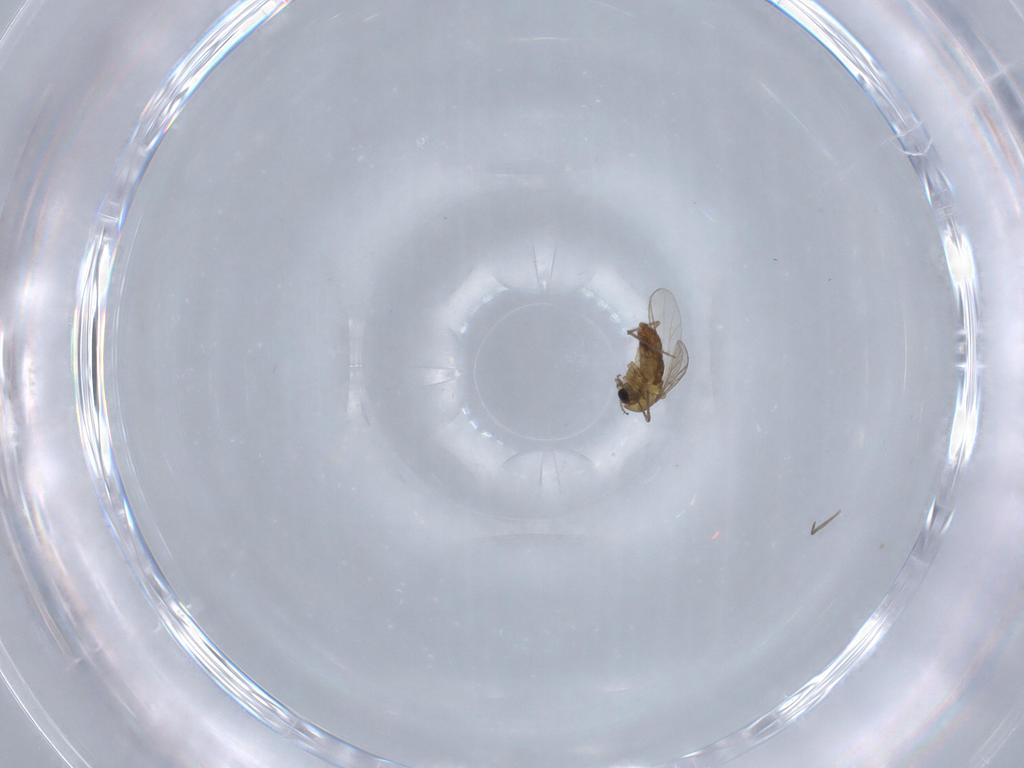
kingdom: Animalia
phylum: Arthropoda
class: Insecta
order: Diptera
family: Chironomidae
